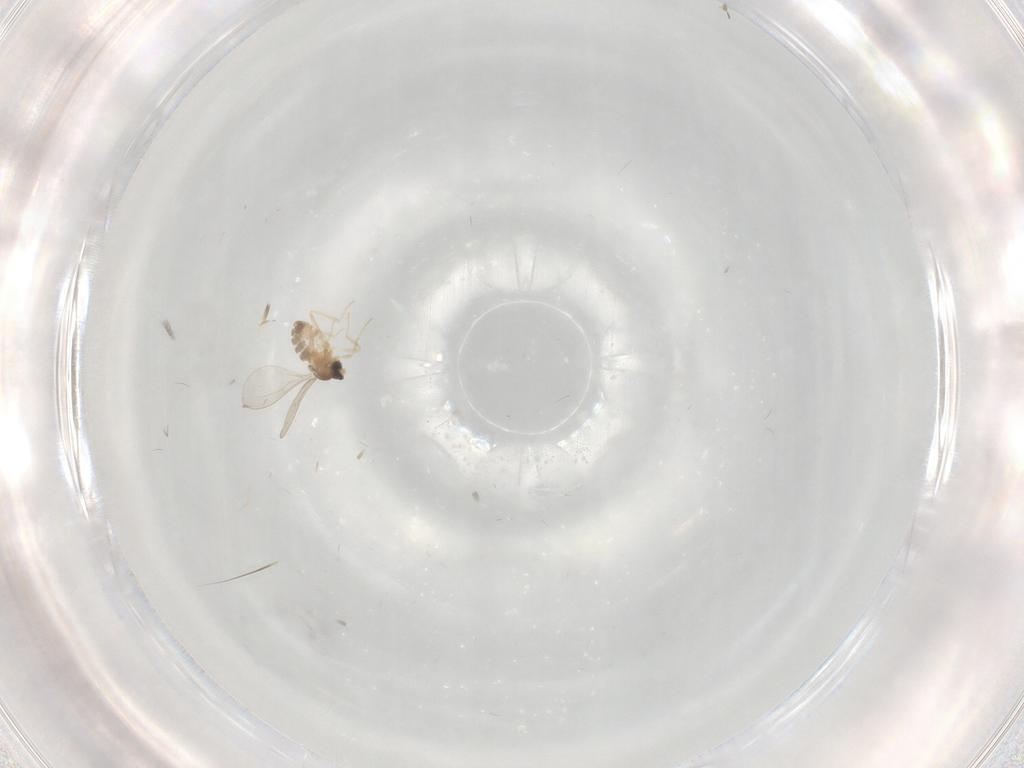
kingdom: Animalia
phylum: Arthropoda
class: Insecta
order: Diptera
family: Cecidomyiidae
